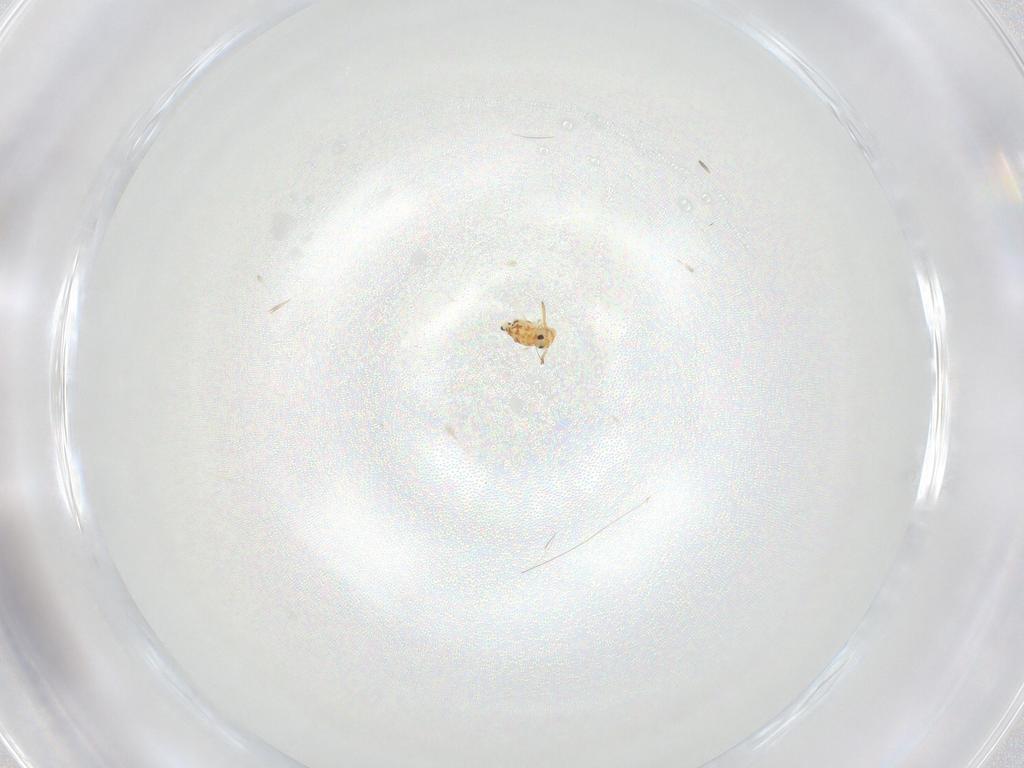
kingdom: Animalia
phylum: Arthropoda
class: Collembola
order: Symphypleona
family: Bourletiellidae
